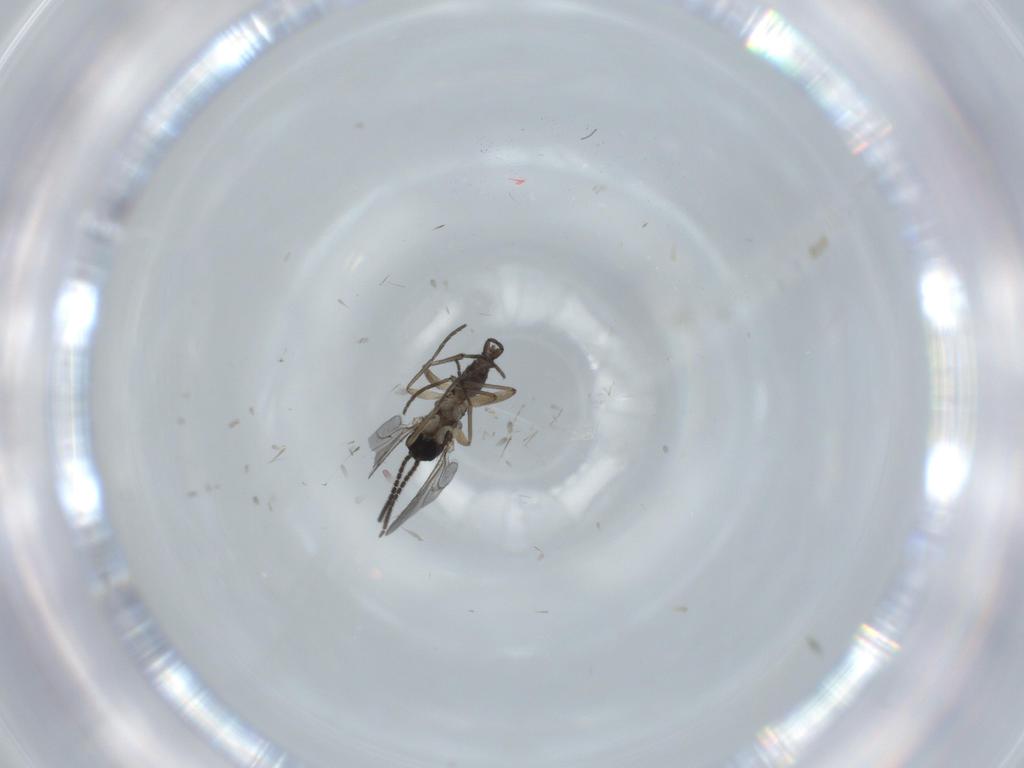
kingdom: Animalia
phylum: Arthropoda
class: Insecta
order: Diptera
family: Sciaridae
